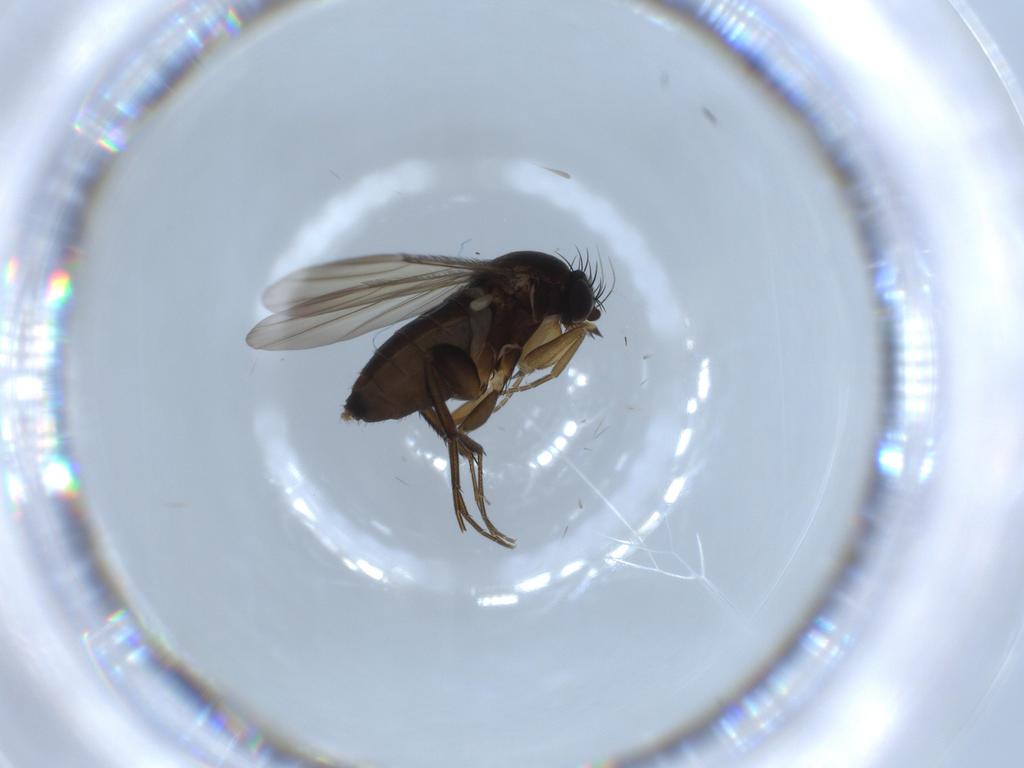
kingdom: Animalia
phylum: Arthropoda
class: Insecta
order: Diptera
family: Phoridae
